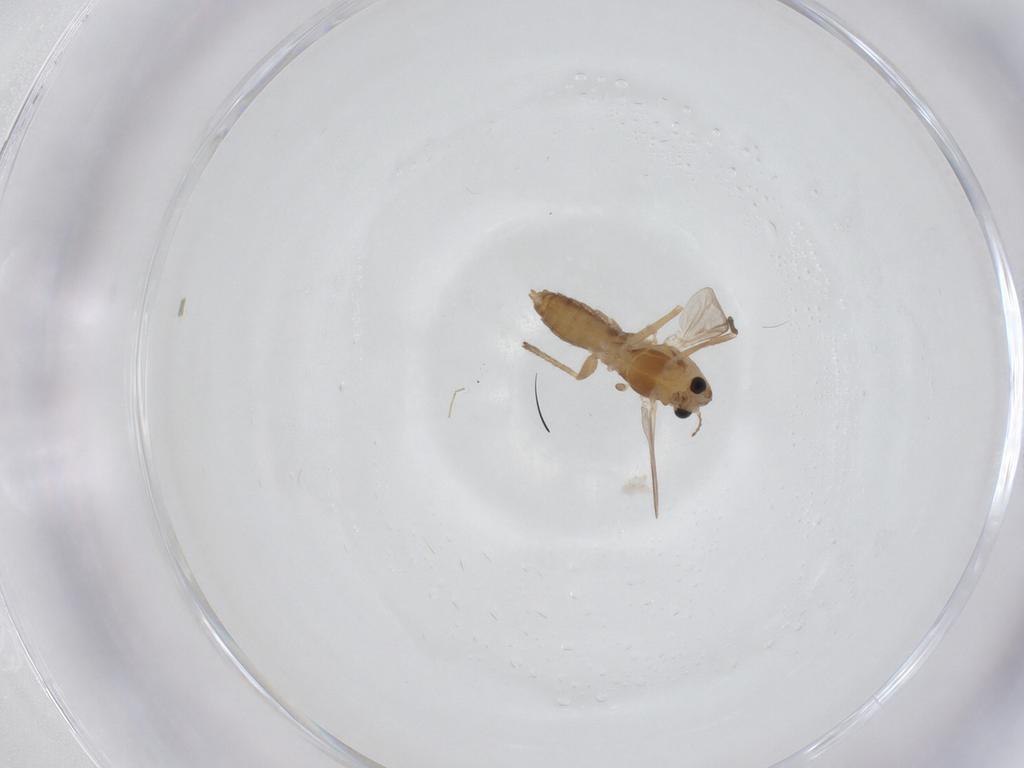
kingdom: Animalia
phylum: Arthropoda
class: Insecta
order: Diptera
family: Chironomidae
